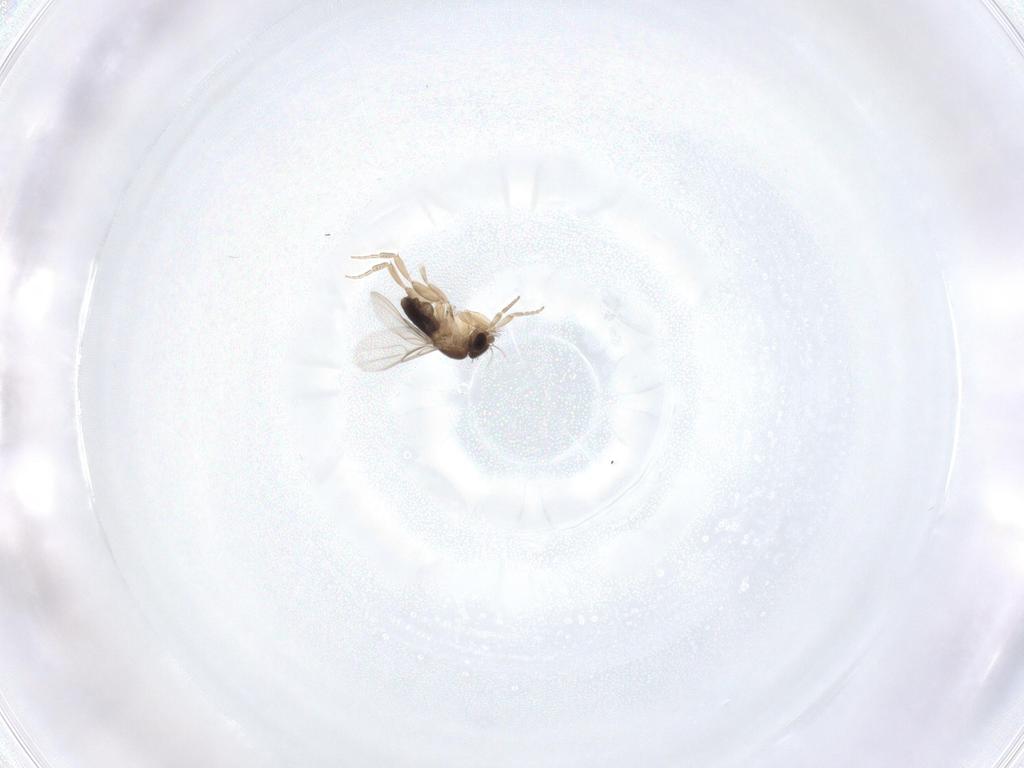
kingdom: Animalia
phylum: Arthropoda
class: Insecta
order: Diptera
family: Phoridae
